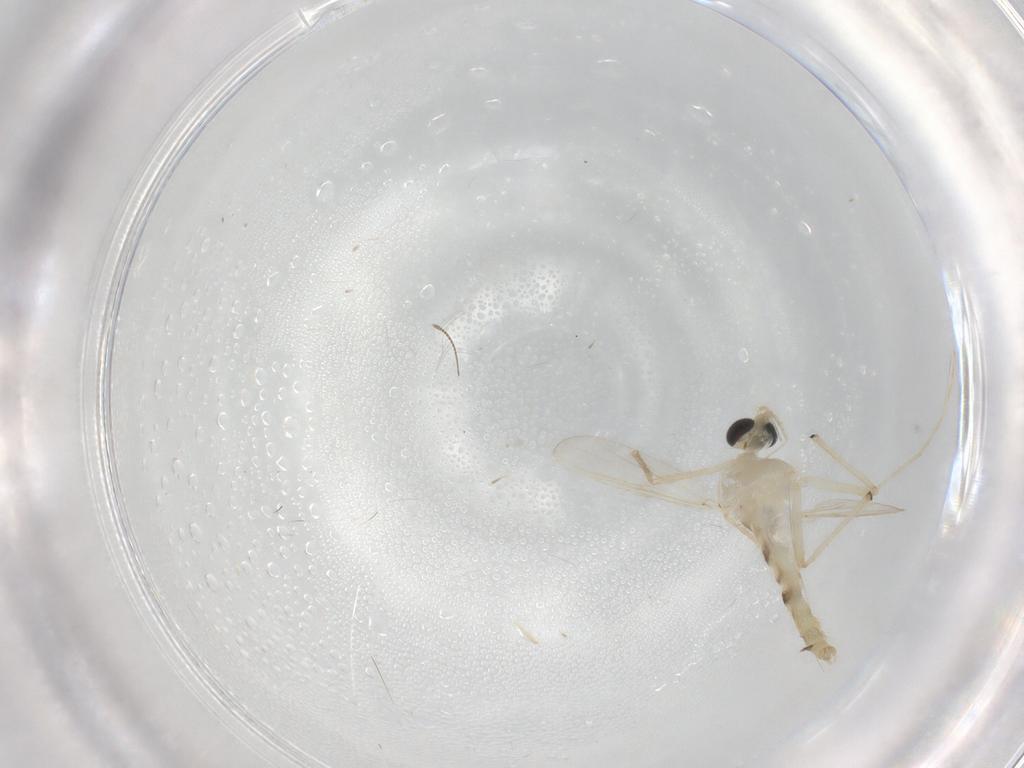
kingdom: Animalia
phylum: Arthropoda
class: Insecta
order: Diptera
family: Chironomidae
